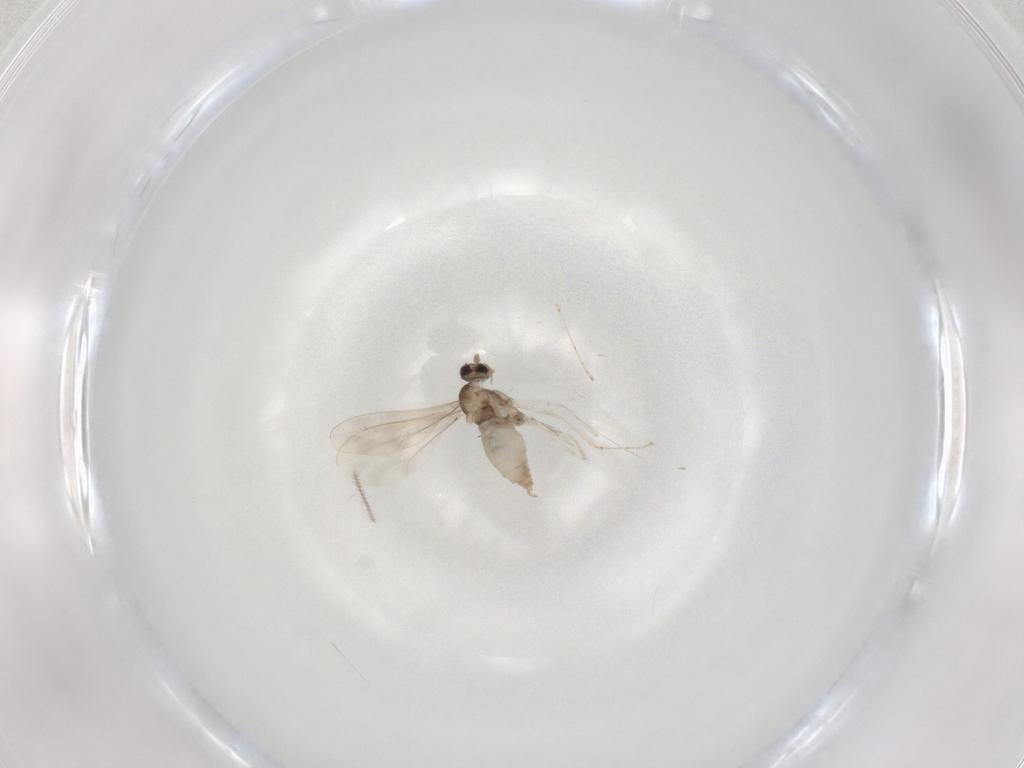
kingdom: Animalia
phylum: Arthropoda
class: Insecta
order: Diptera
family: Cecidomyiidae
